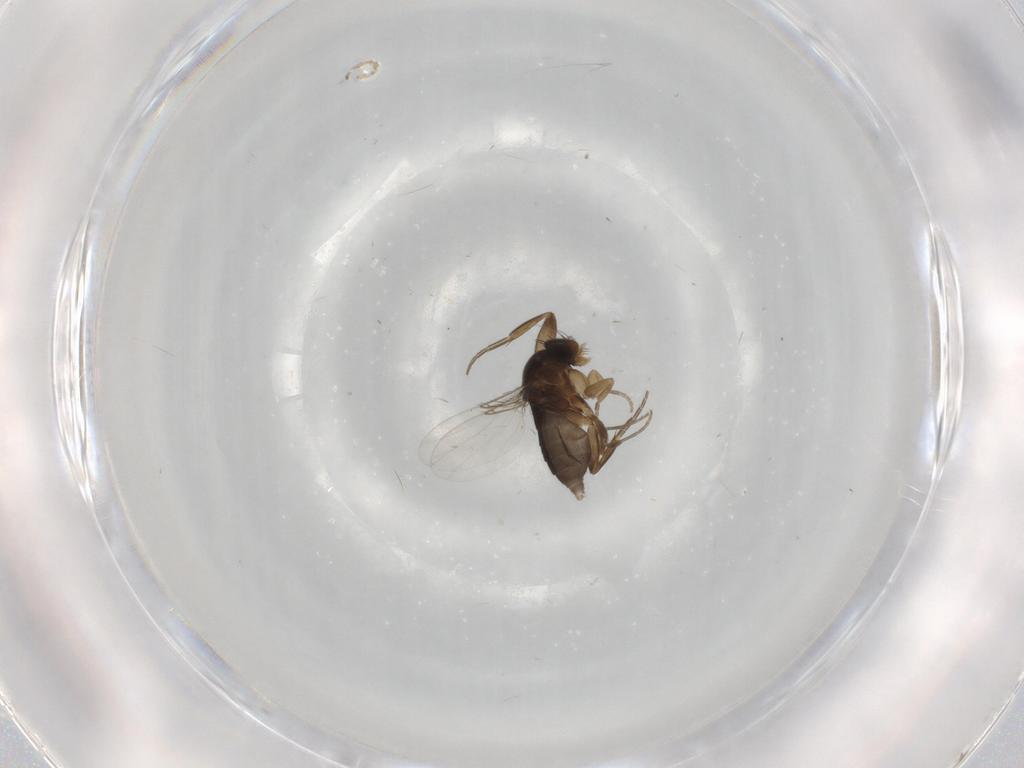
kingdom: Animalia
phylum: Arthropoda
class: Insecta
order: Diptera
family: Phoridae
